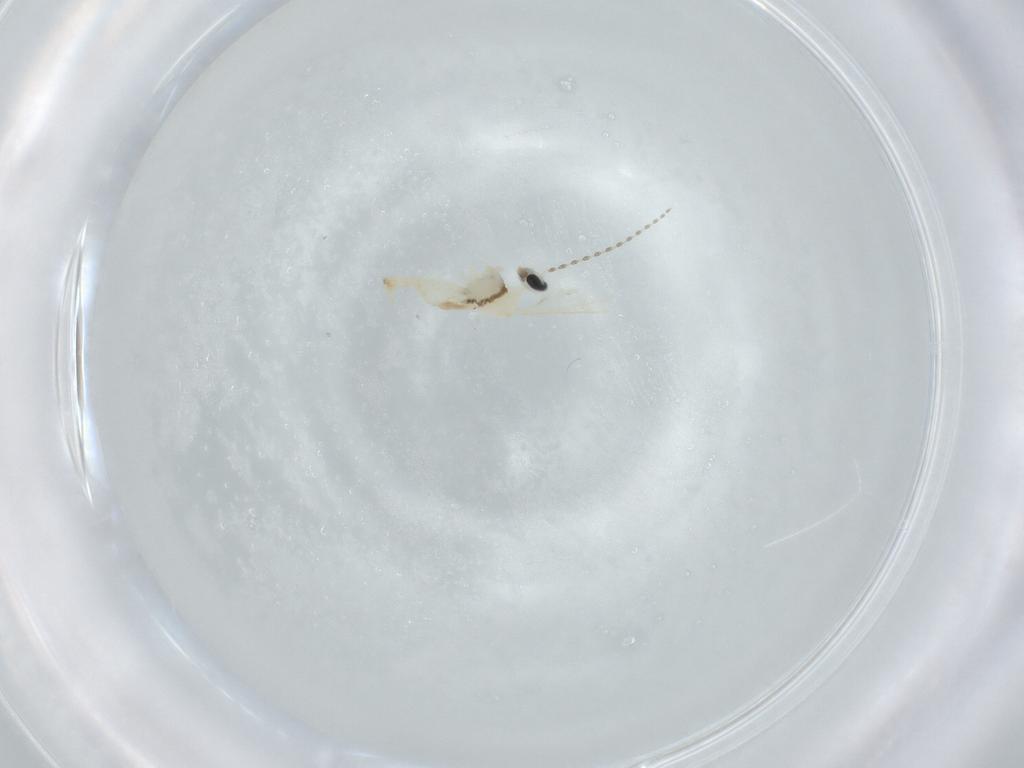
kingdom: Animalia
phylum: Arthropoda
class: Insecta
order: Diptera
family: Cecidomyiidae
